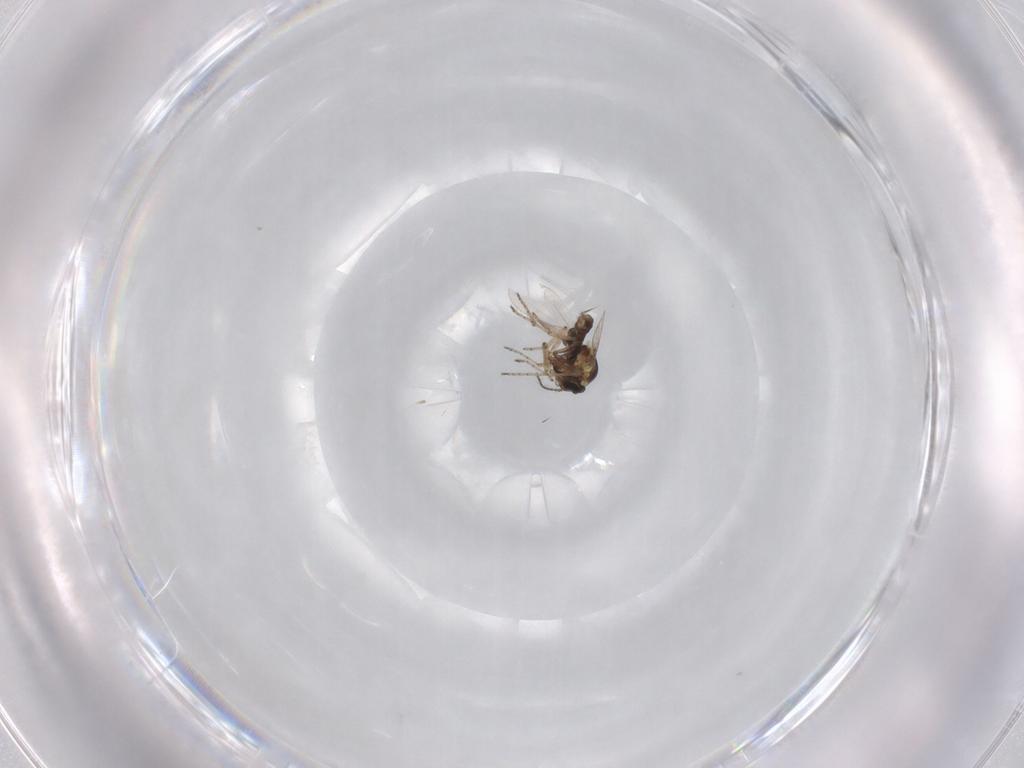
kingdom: Animalia
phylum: Arthropoda
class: Insecta
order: Diptera
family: Ceratopogonidae
